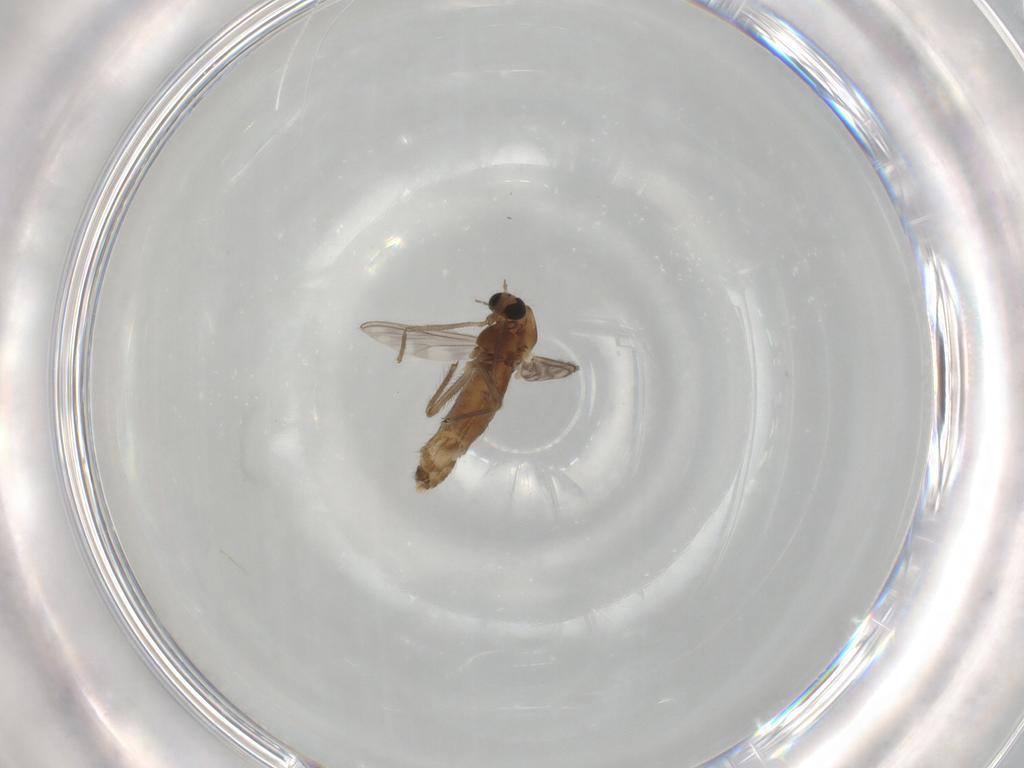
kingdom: Animalia
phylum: Arthropoda
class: Insecta
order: Diptera
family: Chironomidae
